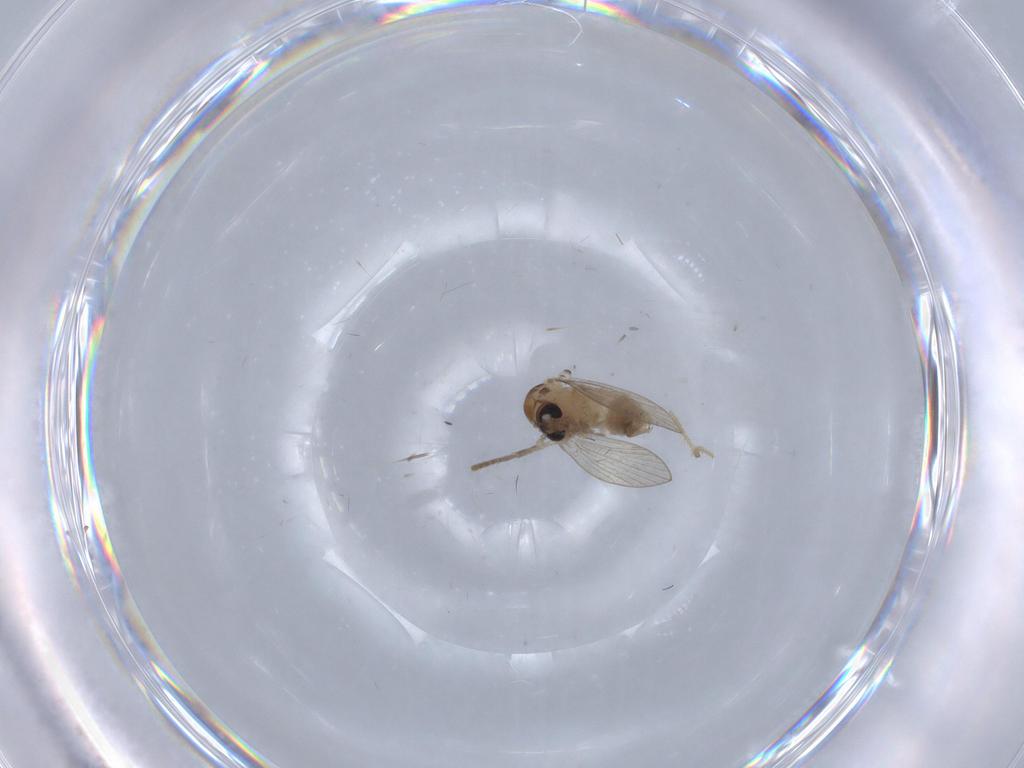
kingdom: Animalia
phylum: Arthropoda
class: Insecta
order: Diptera
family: Psychodidae
